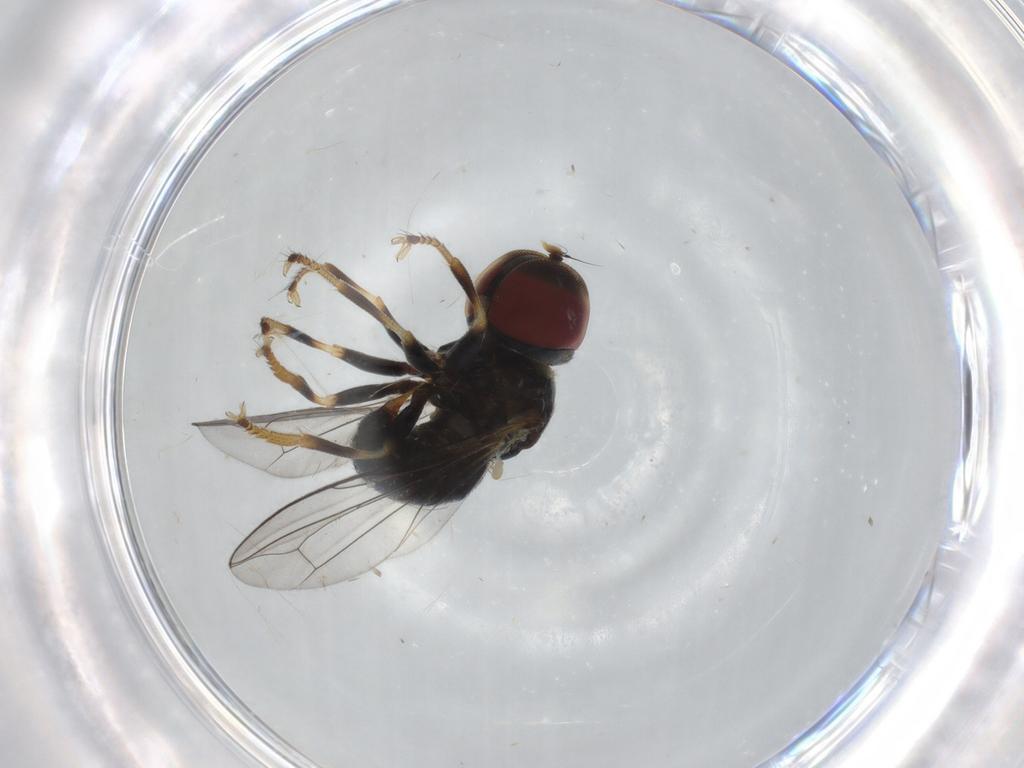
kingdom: Animalia
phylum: Arthropoda
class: Insecta
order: Diptera
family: Pipunculidae
